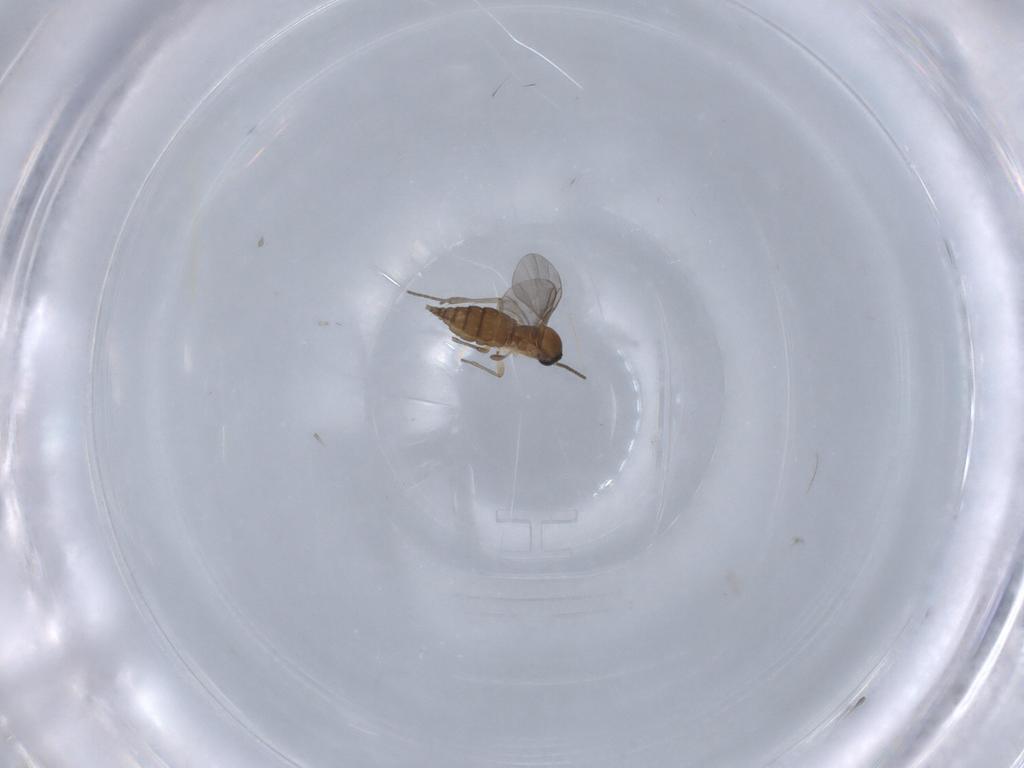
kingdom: Animalia
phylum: Arthropoda
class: Insecta
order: Diptera
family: Sciaridae
